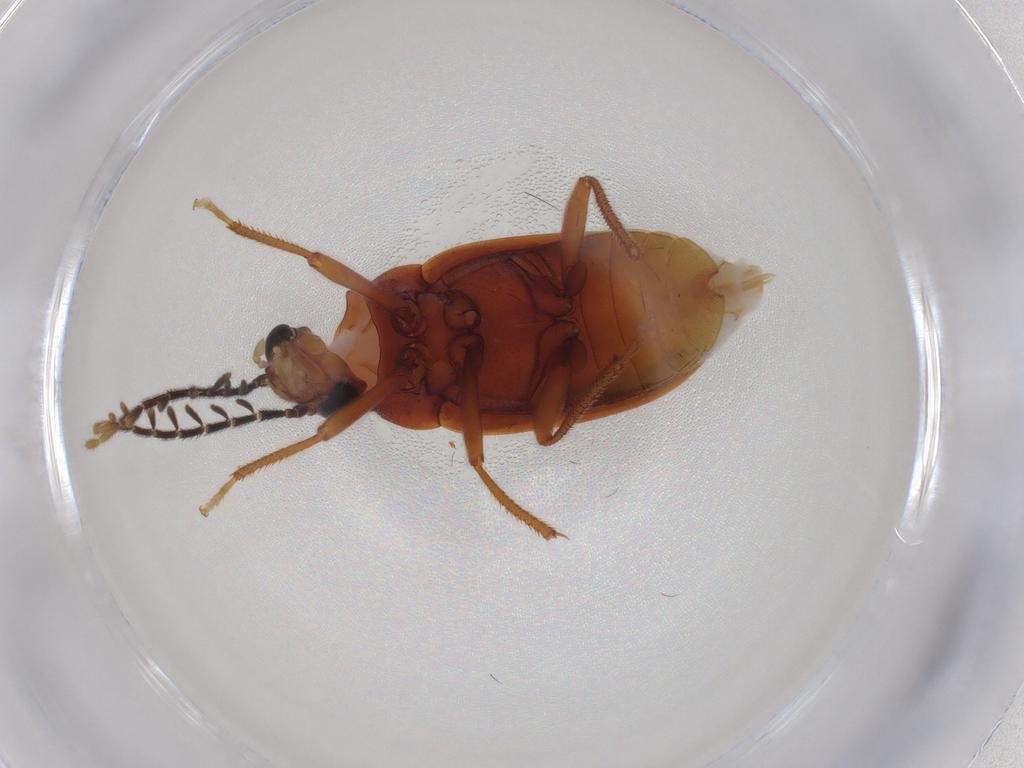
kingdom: Animalia
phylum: Arthropoda
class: Insecta
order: Coleoptera
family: Ptilodactylidae
